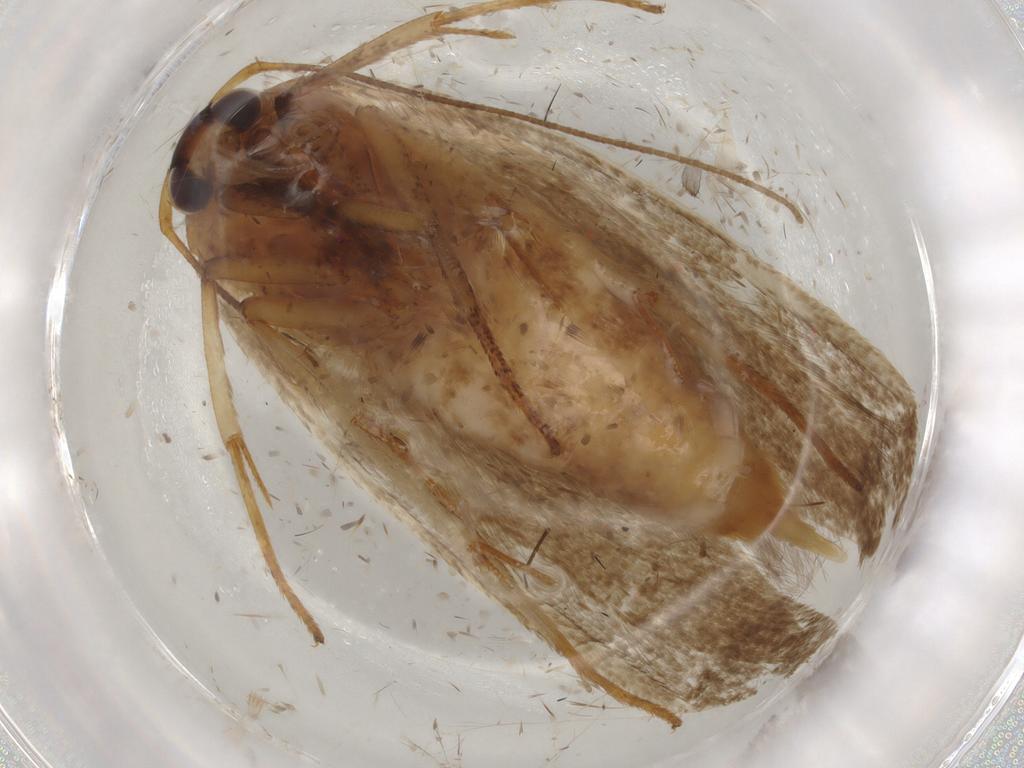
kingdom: Animalia
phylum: Arthropoda
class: Insecta
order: Lepidoptera
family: Blastobasidae
